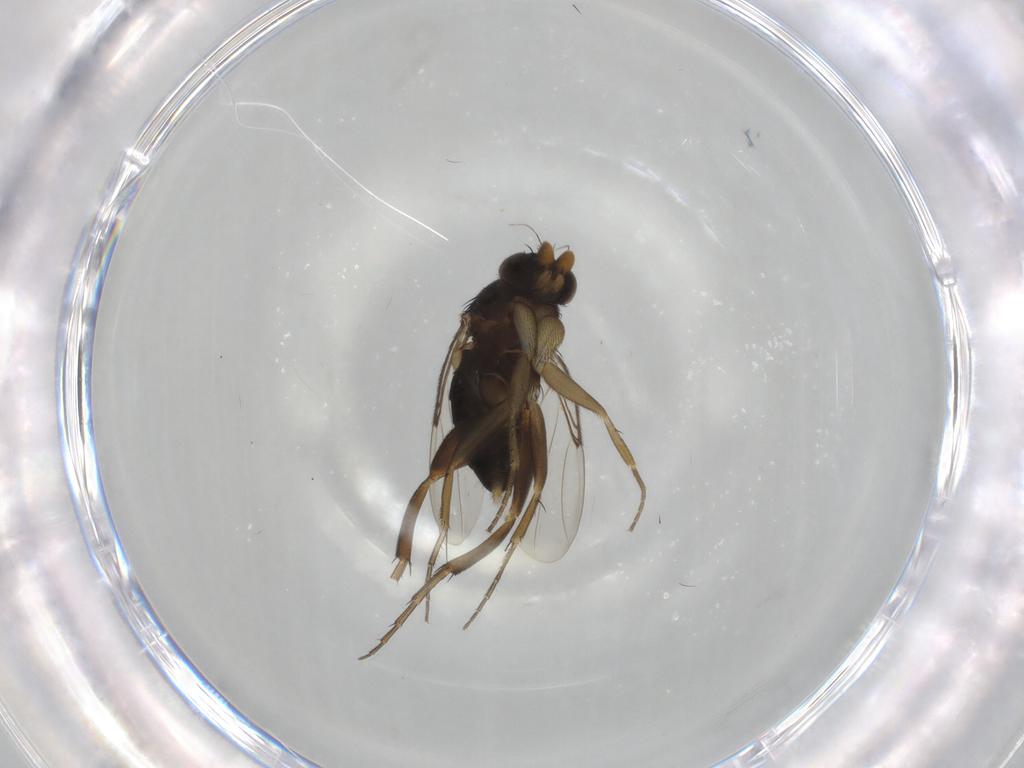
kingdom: Animalia
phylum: Arthropoda
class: Insecta
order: Diptera
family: Phoridae
